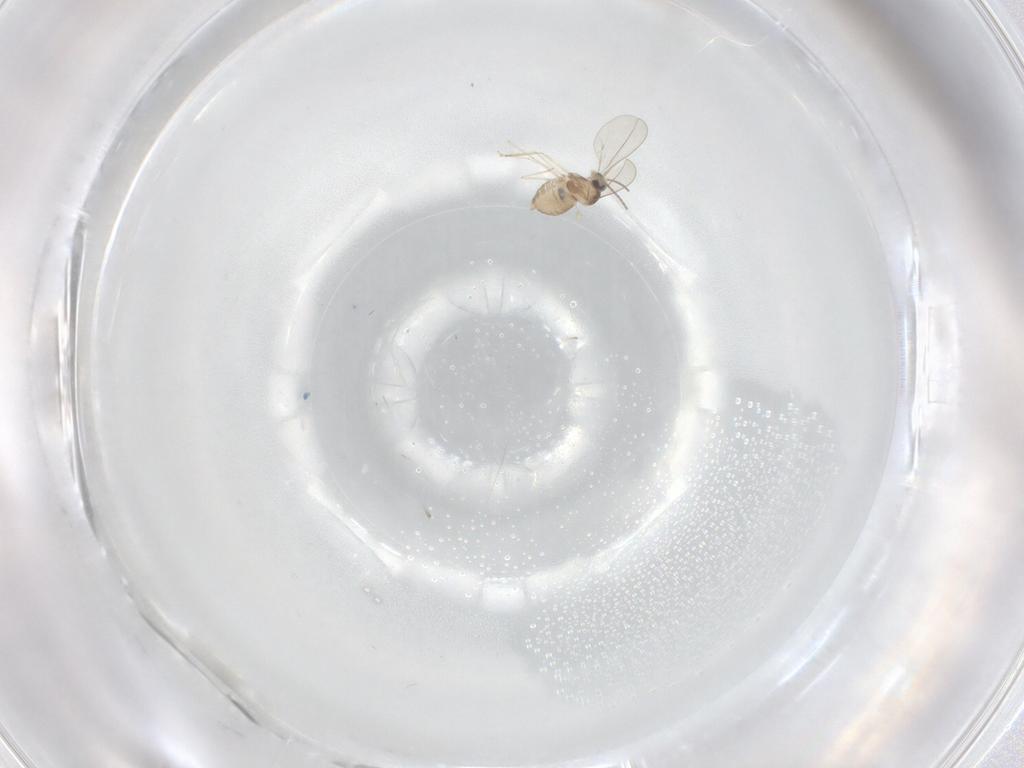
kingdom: Animalia
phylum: Arthropoda
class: Insecta
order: Diptera
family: Cecidomyiidae
